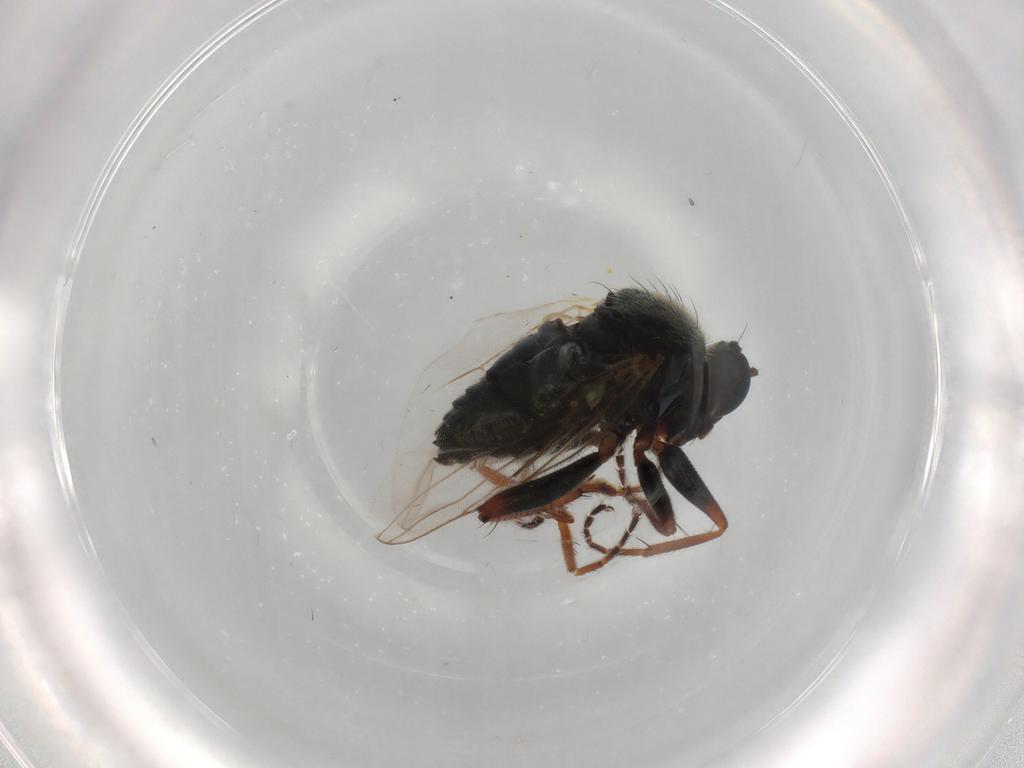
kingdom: Animalia
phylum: Arthropoda
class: Insecta
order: Diptera
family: Hybotidae
